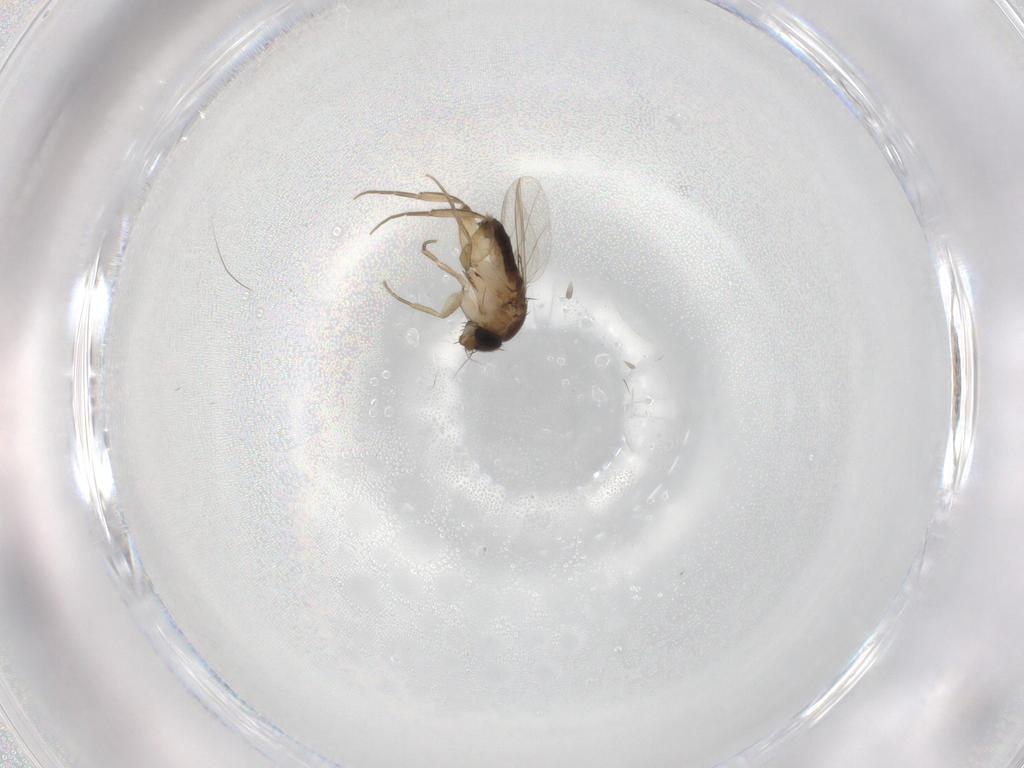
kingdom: Animalia
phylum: Arthropoda
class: Insecta
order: Diptera
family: Phoridae
